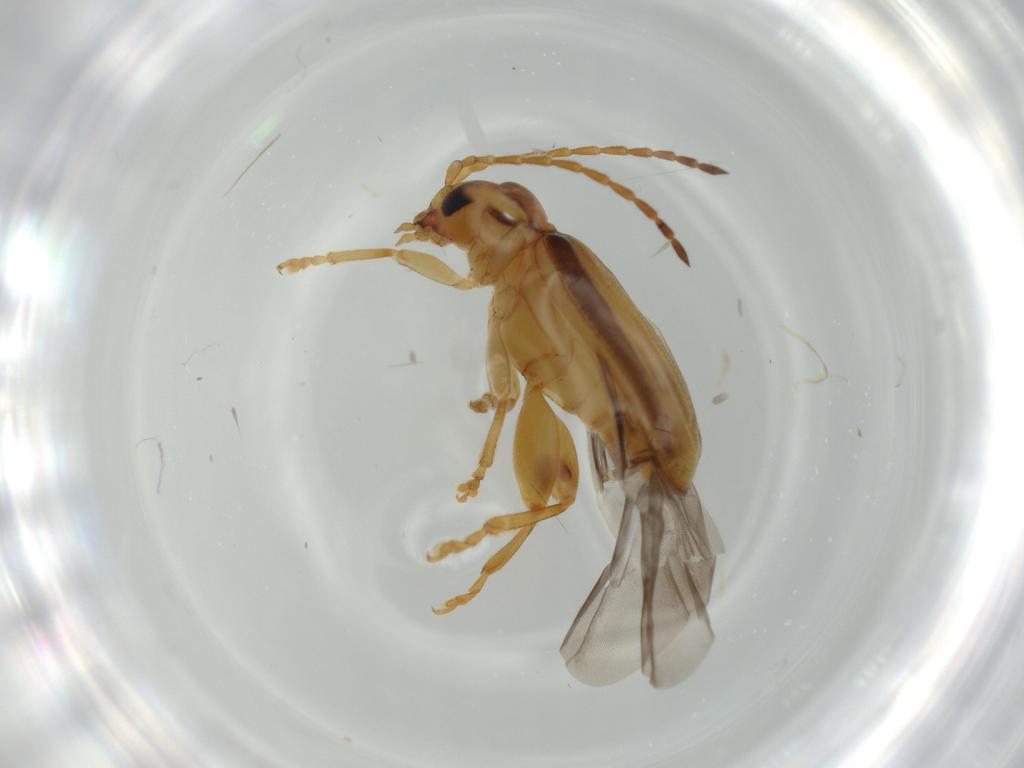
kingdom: Animalia
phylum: Arthropoda
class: Insecta
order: Coleoptera
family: Chrysomelidae
